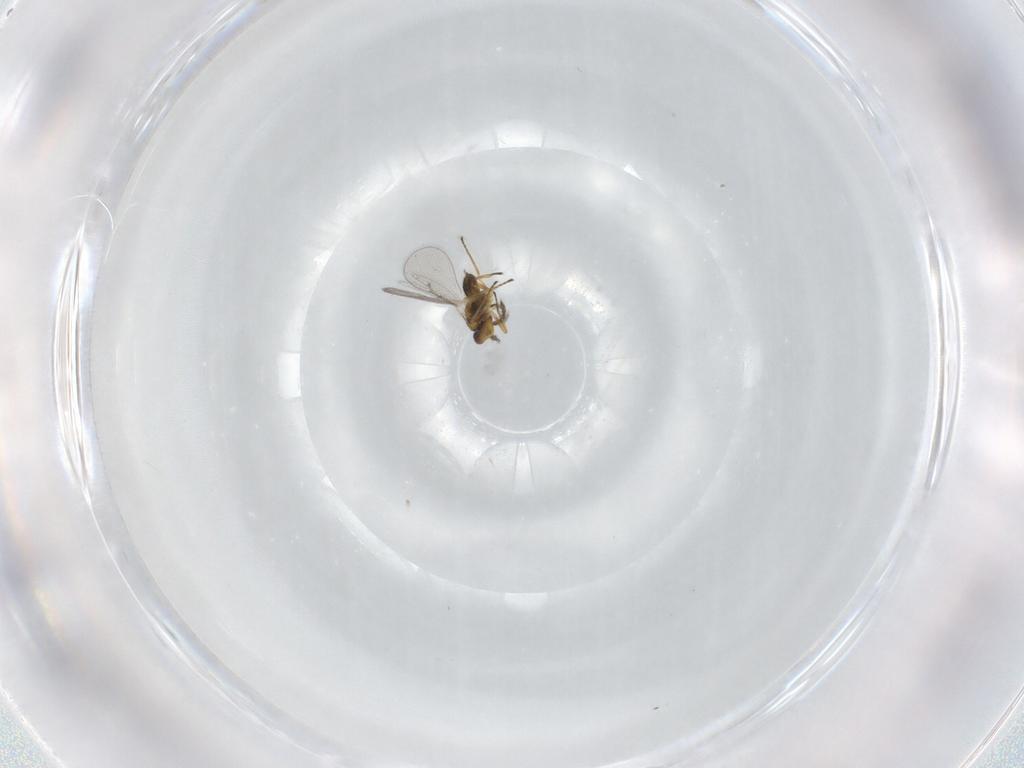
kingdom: Animalia
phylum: Arthropoda
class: Insecta
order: Hymenoptera
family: Eulophidae
